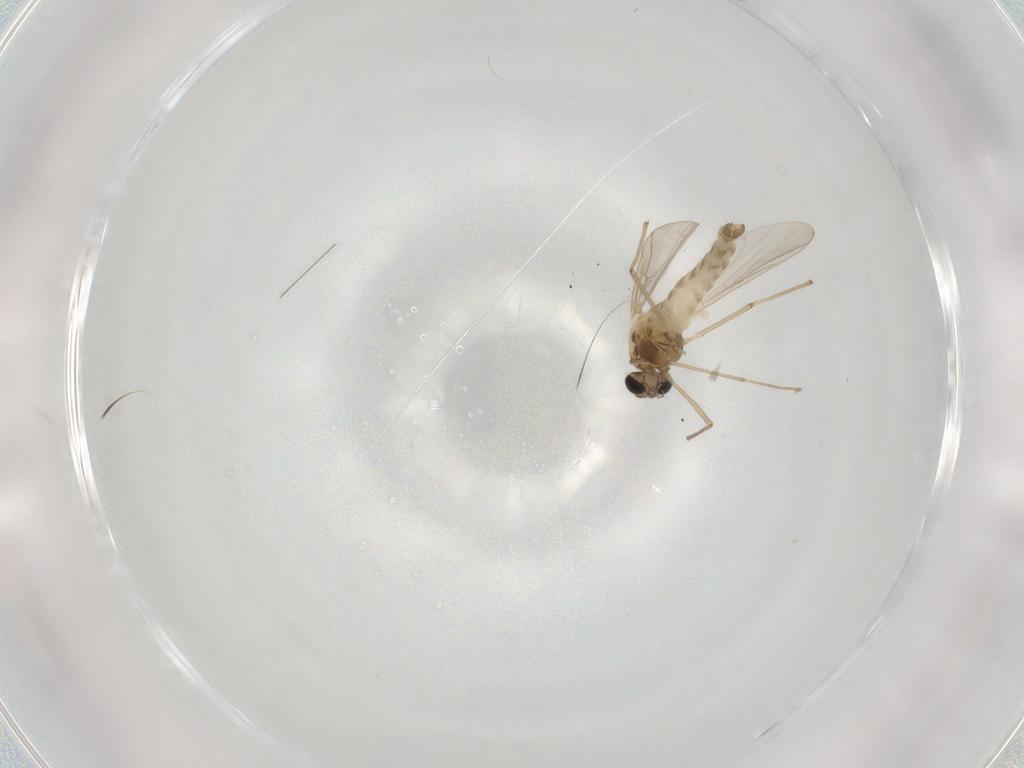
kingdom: Animalia
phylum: Arthropoda
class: Insecta
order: Diptera
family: Chironomidae
